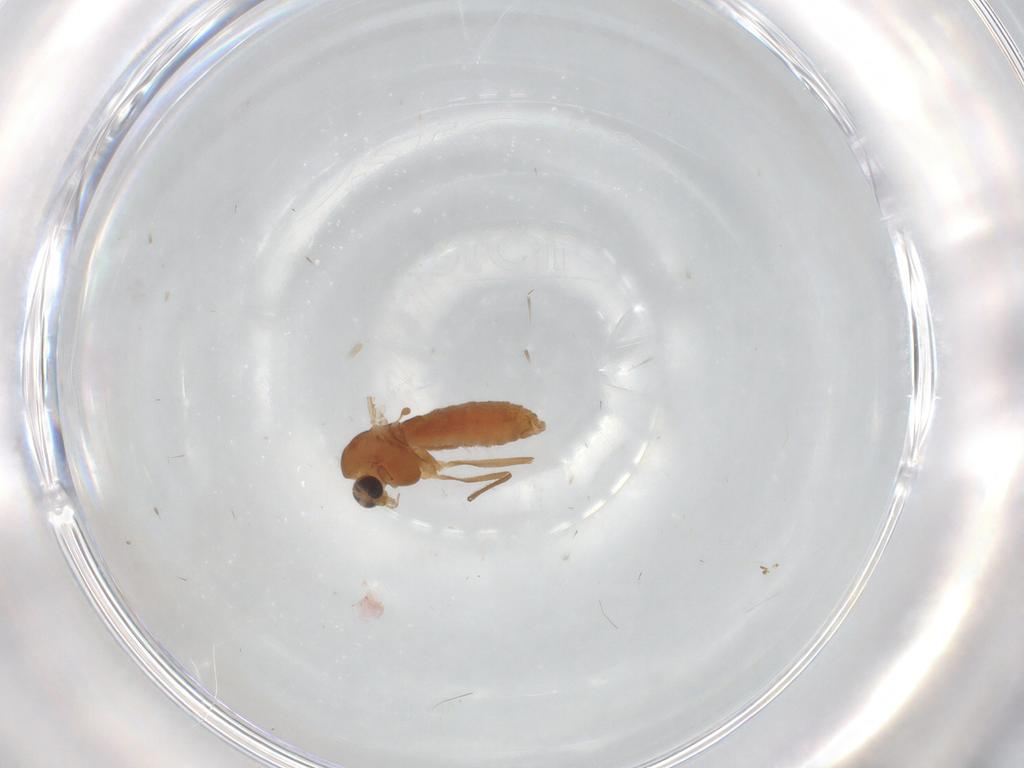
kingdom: Animalia
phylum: Arthropoda
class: Insecta
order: Diptera
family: Chironomidae
